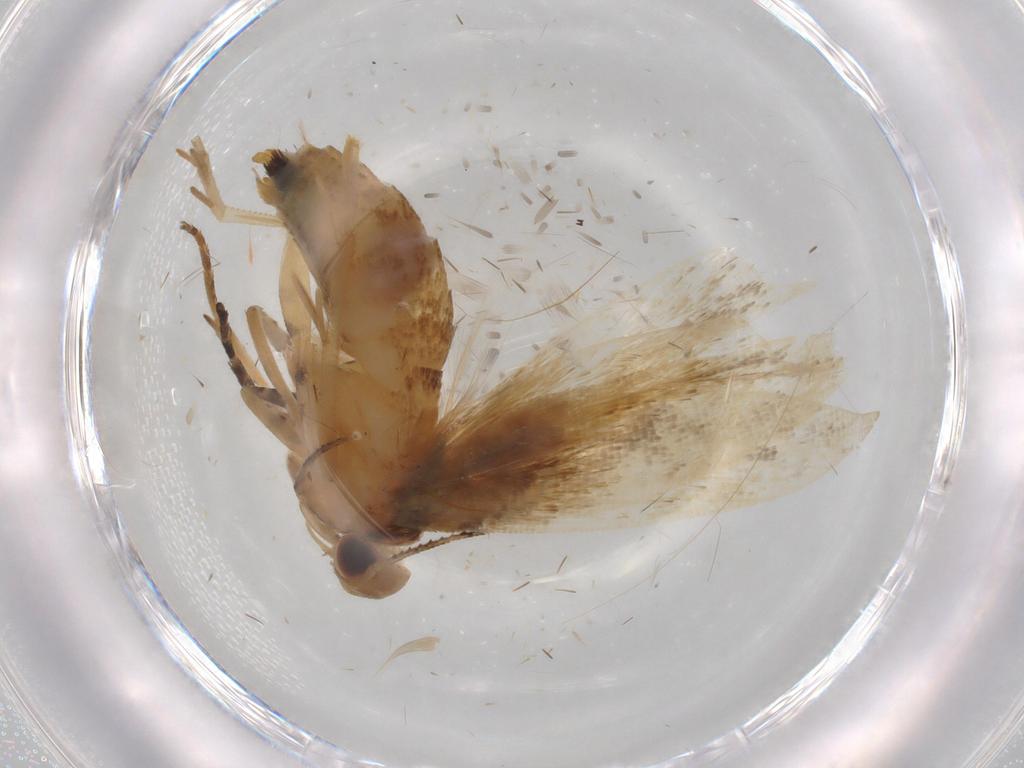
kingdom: Animalia
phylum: Arthropoda
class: Insecta
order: Lepidoptera
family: Gelechiidae
